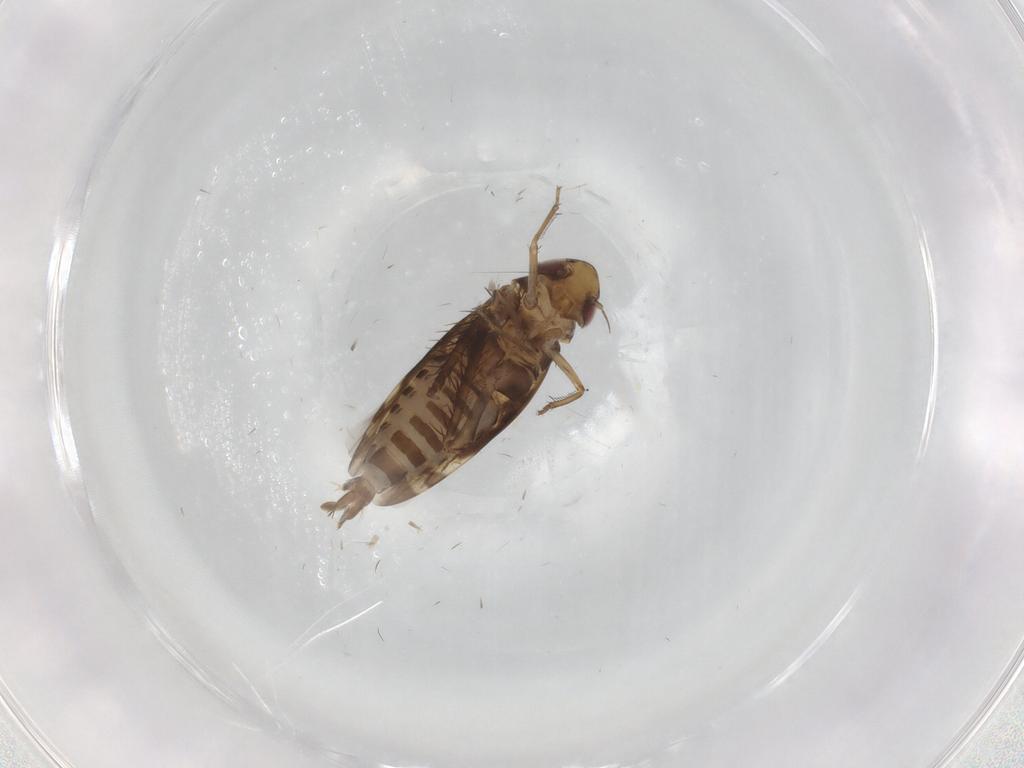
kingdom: Animalia
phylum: Arthropoda
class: Insecta
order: Hemiptera
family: Cicadellidae
